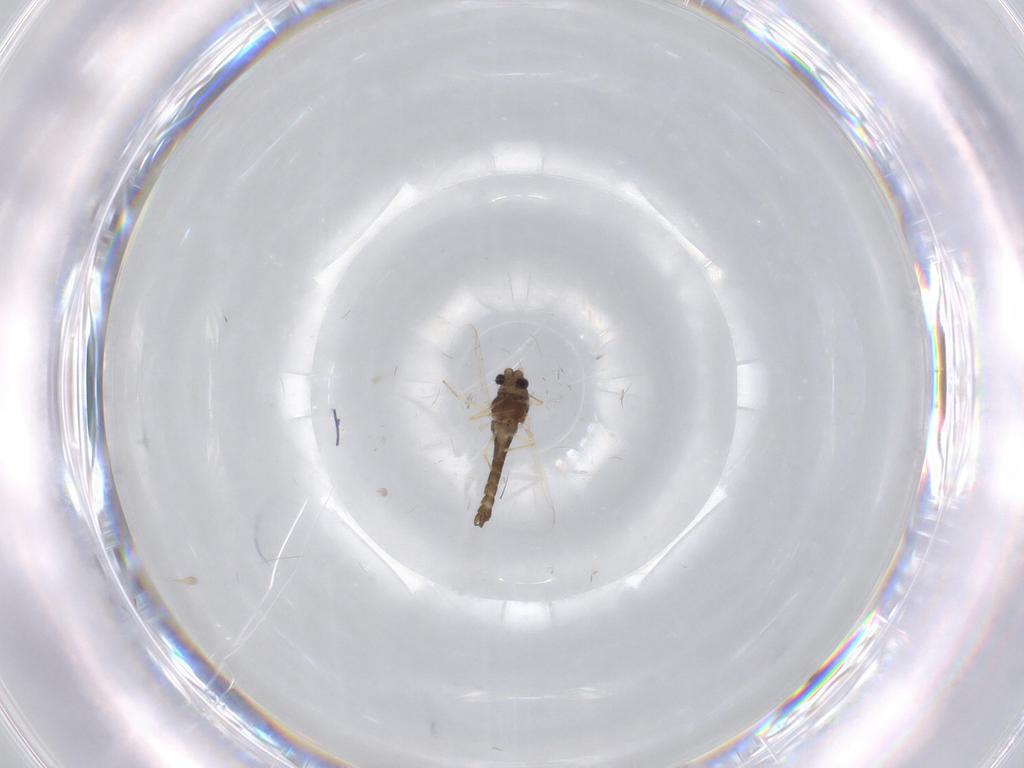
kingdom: Animalia
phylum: Arthropoda
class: Insecta
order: Diptera
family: Chironomidae
